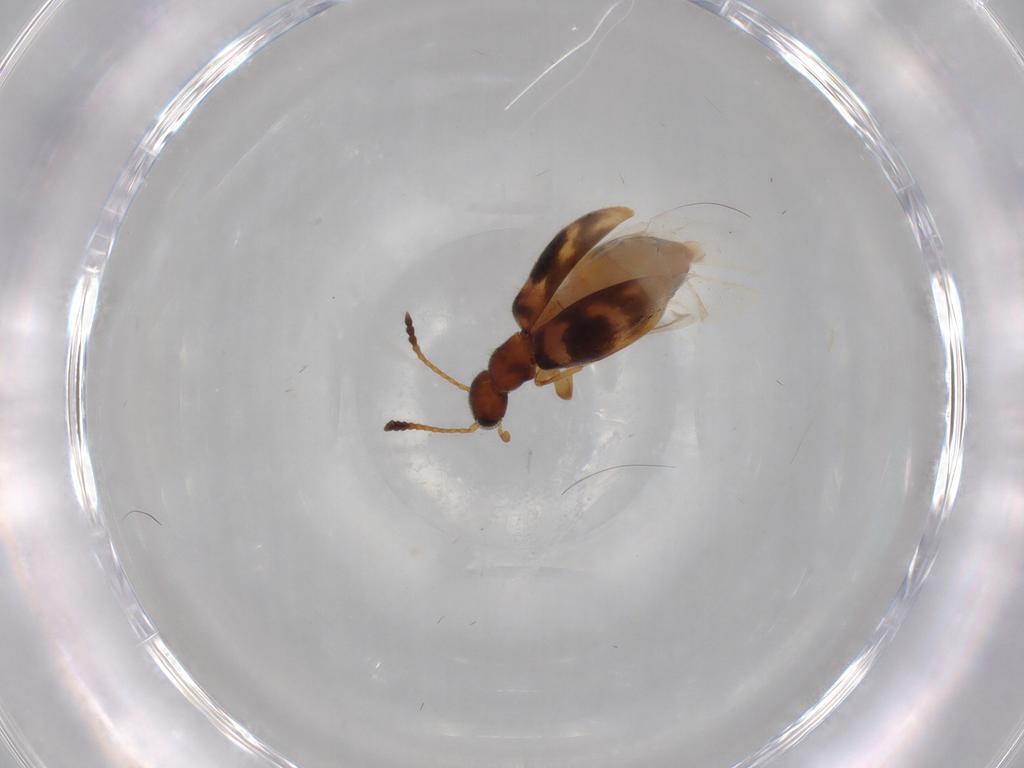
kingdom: Animalia
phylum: Arthropoda
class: Insecta
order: Coleoptera
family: Anthicidae
